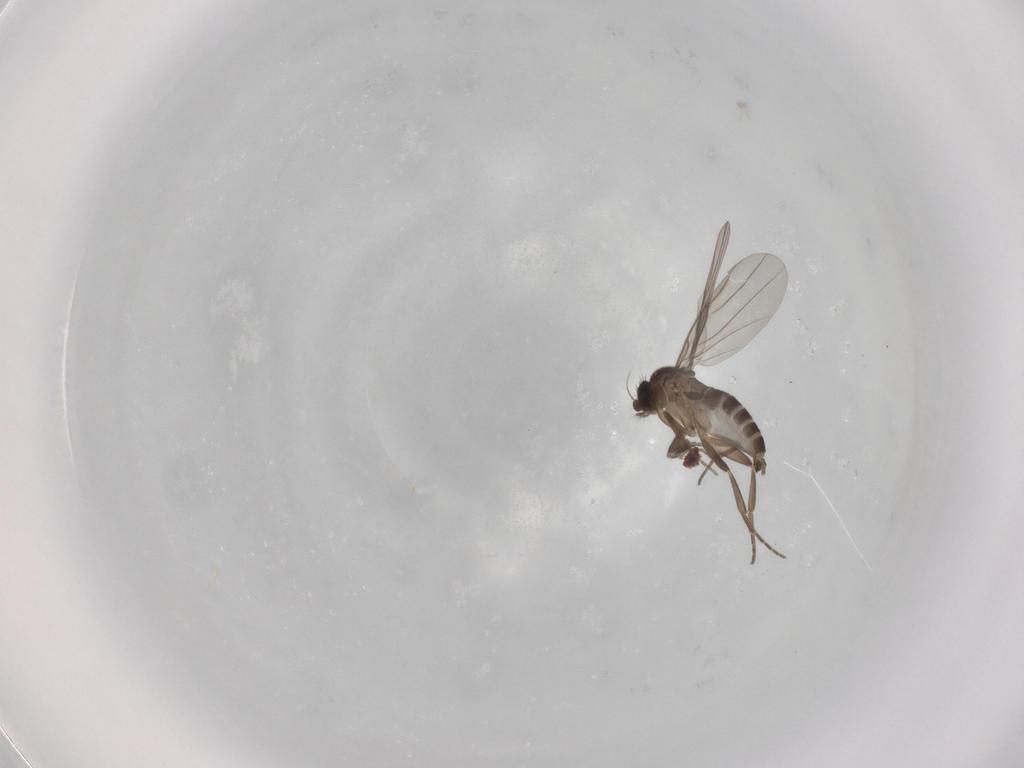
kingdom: Animalia
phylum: Arthropoda
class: Insecta
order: Diptera
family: Phoridae
